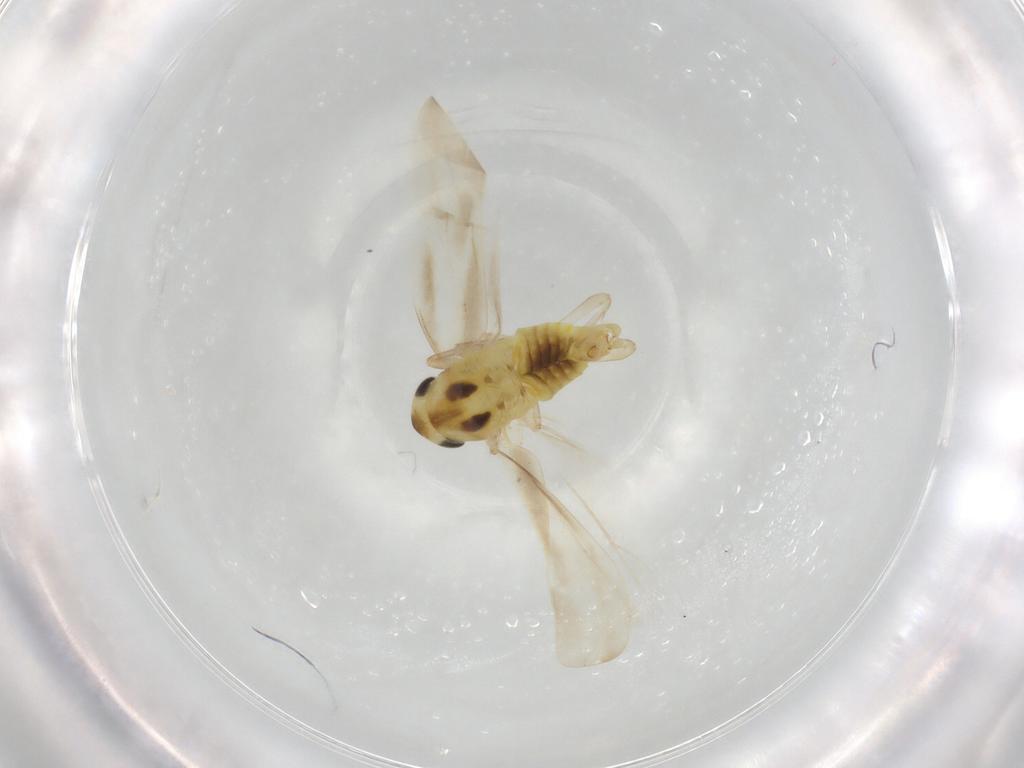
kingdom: Animalia
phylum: Arthropoda
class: Insecta
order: Hemiptera
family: Cicadellidae
